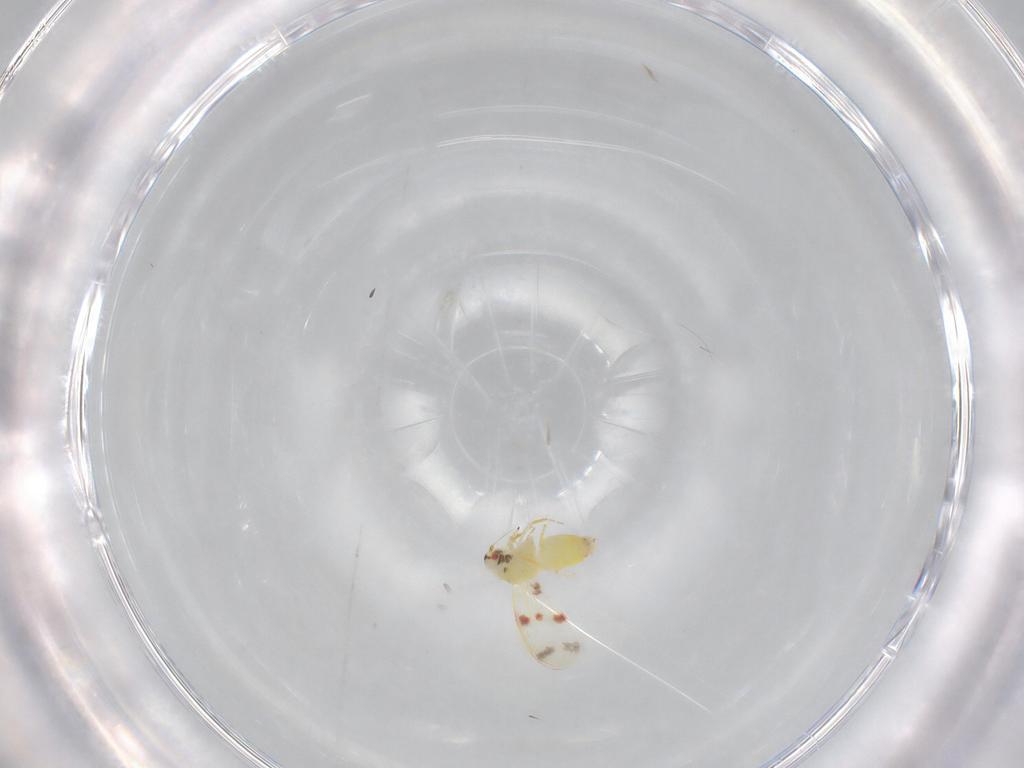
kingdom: Animalia
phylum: Arthropoda
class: Insecta
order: Hemiptera
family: Aleyrodidae
